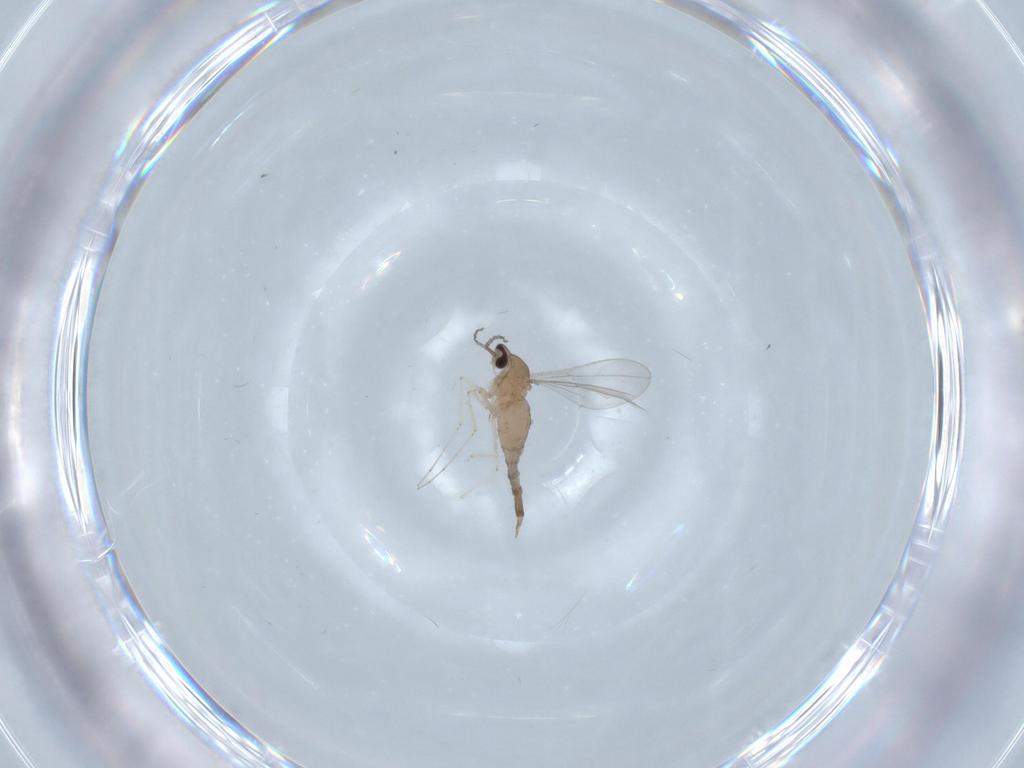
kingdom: Animalia
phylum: Arthropoda
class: Insecta
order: Diptera
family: Cecidomyiidae
